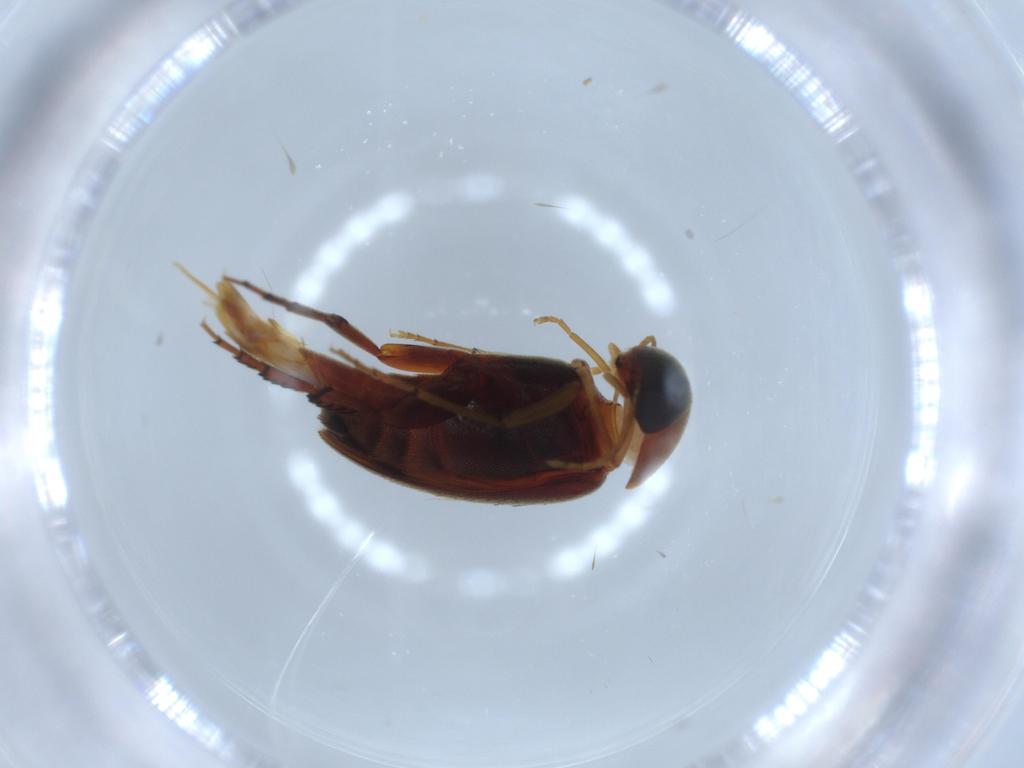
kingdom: Animalia
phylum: Arthropoda
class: Insecta
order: Coleoptera
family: Mordellidae
